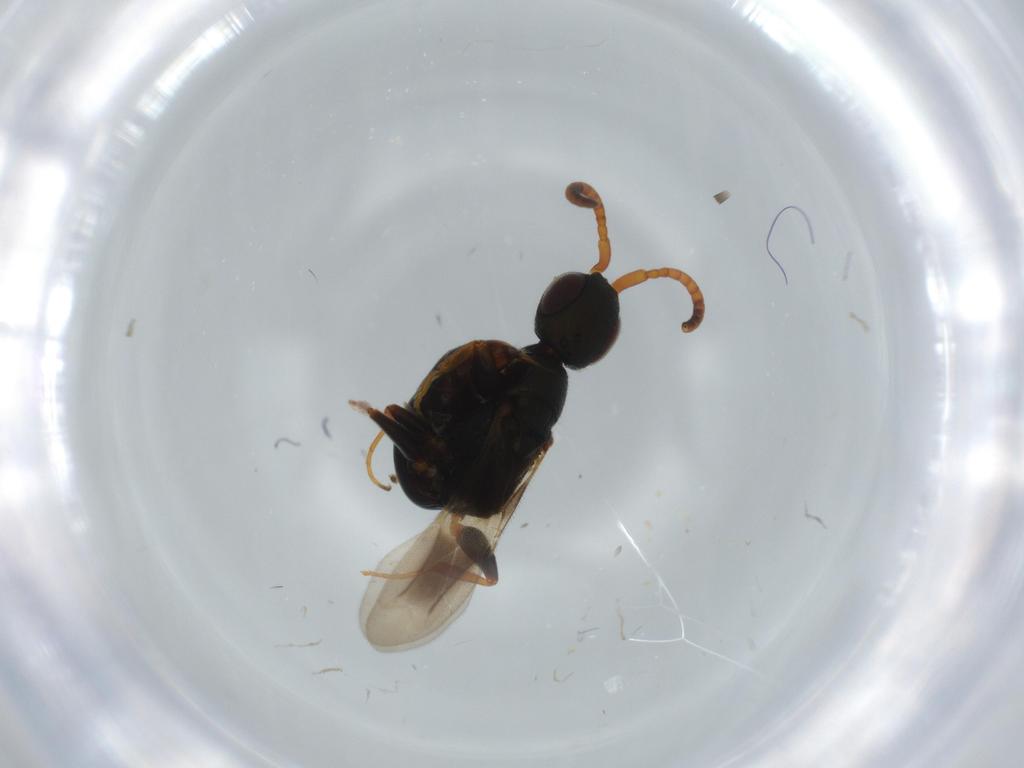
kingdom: Animalia
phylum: Arthropoda
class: Insecta
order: Hymenoptera
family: Bethylidae
